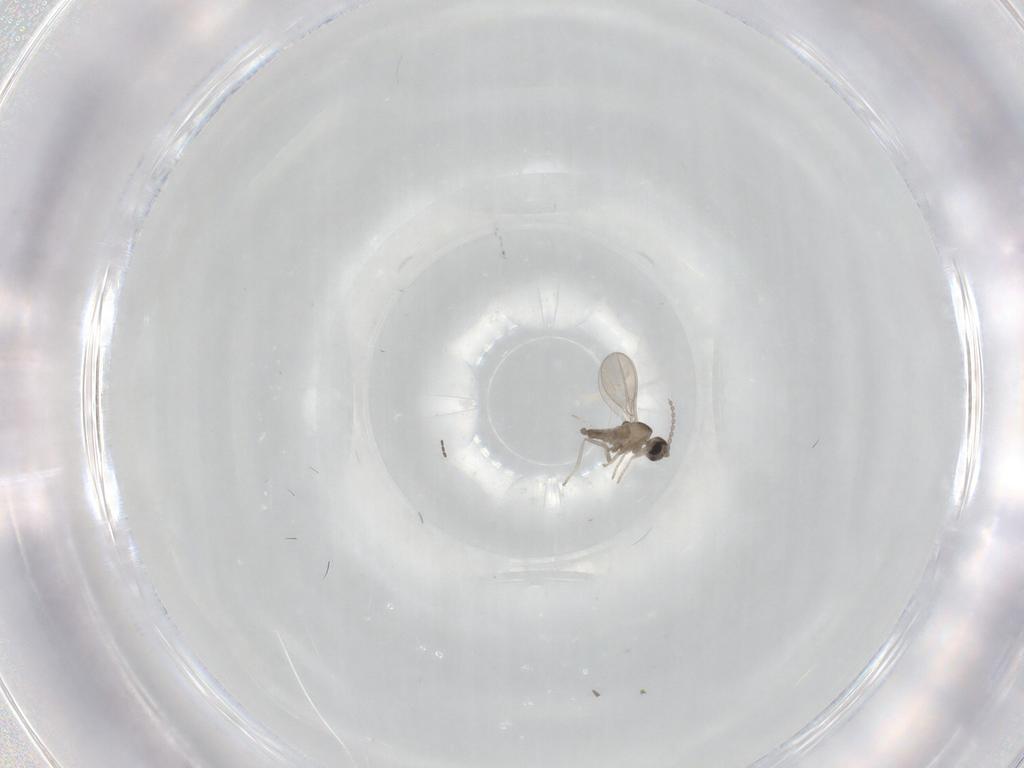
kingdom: Animalia
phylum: Arthropoda
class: Insecta
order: Diptera
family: Cecidomyiidae
